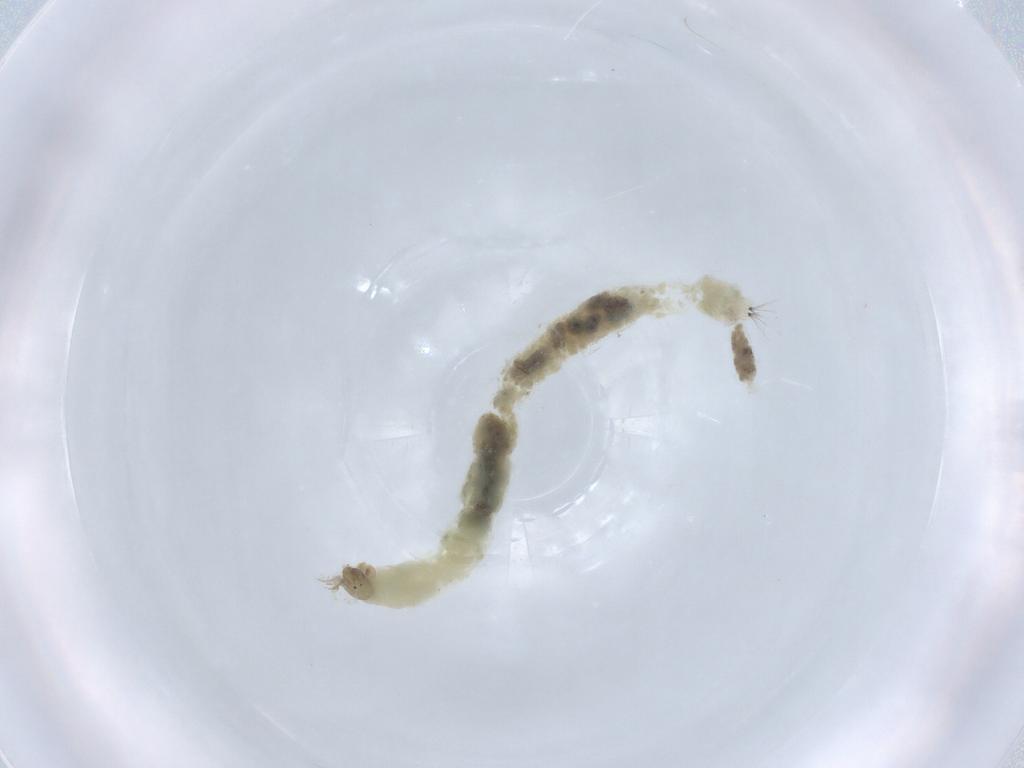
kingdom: Animalia
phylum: Arthropoda
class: Insecta
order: Diptera
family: Chironomidae
